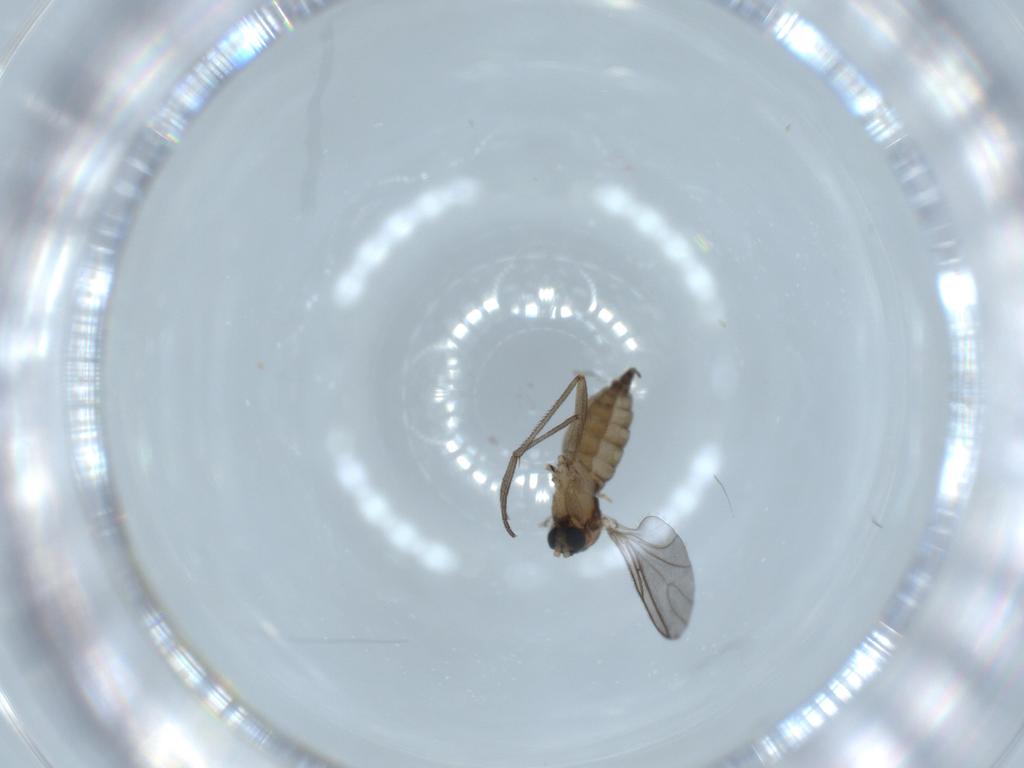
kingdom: Animalia
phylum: Arthropoda
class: Insecta
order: Diptera
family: Sciaridae
